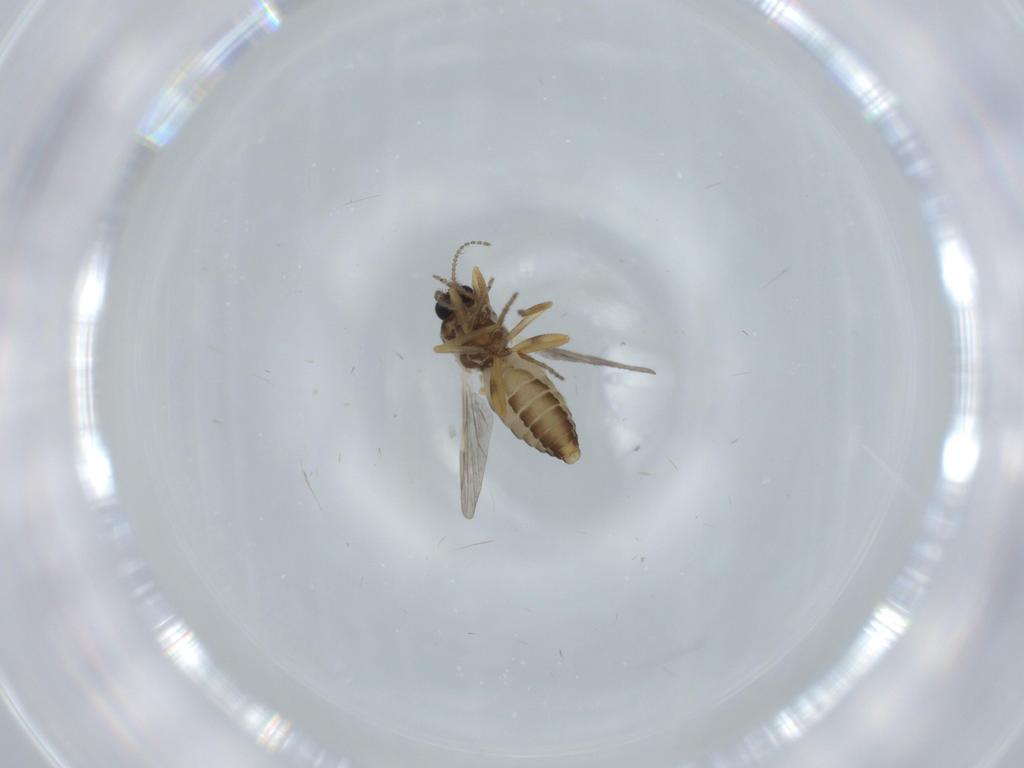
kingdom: Animalia
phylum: Arthropoda
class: Insecta
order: Diptera
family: Ceratopogonidae
